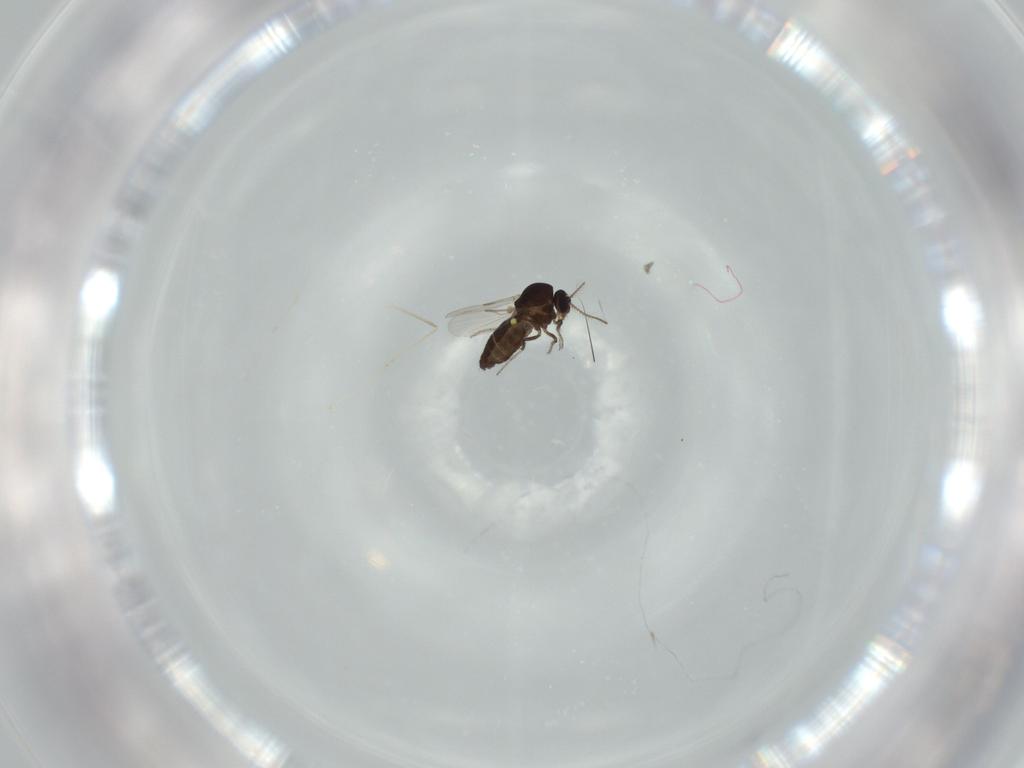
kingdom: Animalia
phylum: Arthropoda
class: Insecta
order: Diptera
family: Ceratopogonidae
